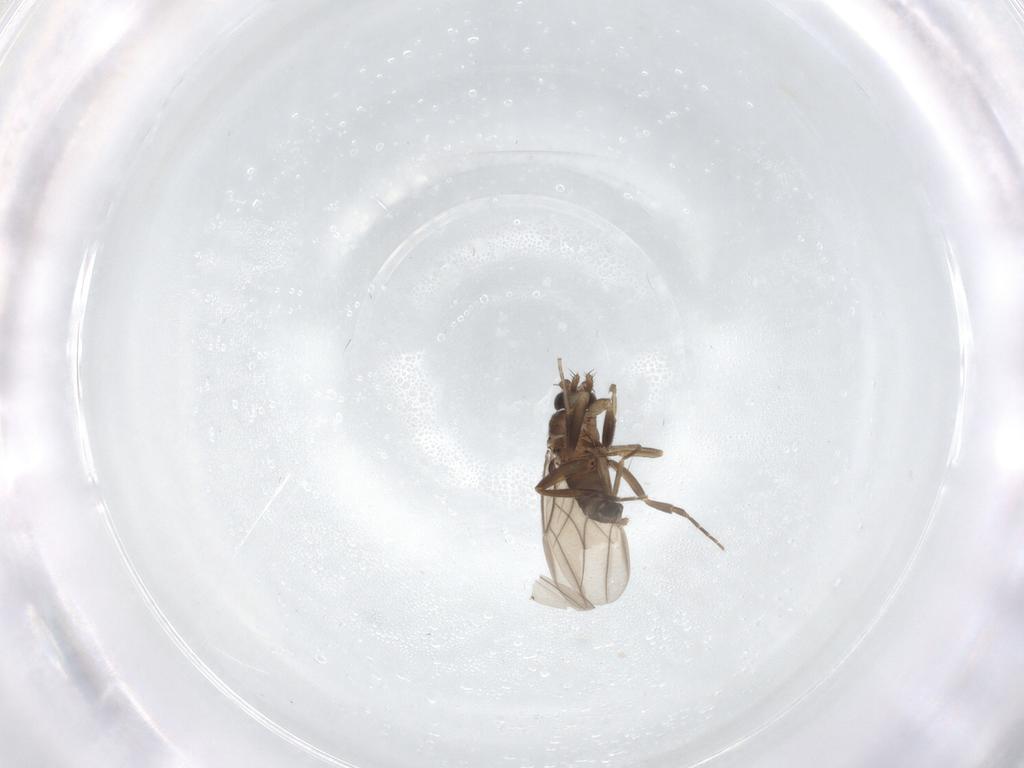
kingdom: Animalia
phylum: Arthropoda
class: Insecta
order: Diptera
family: Phoridae
